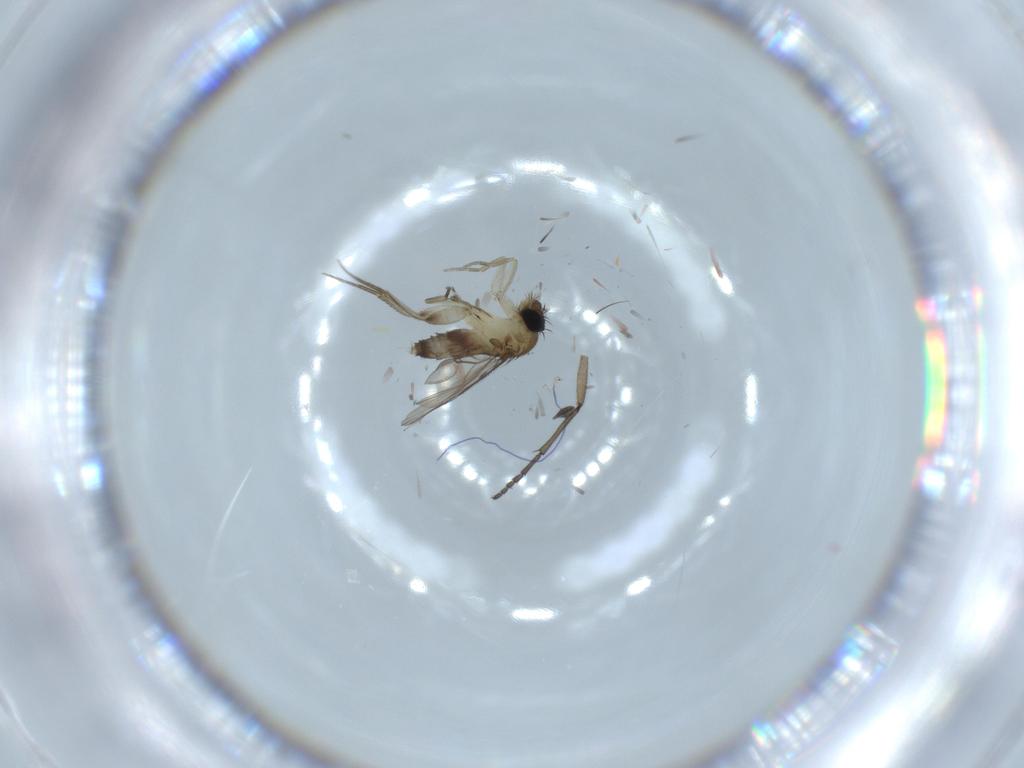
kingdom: Animalia
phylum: Arthropoda
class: Insecta
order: Diptera
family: Phoridae
